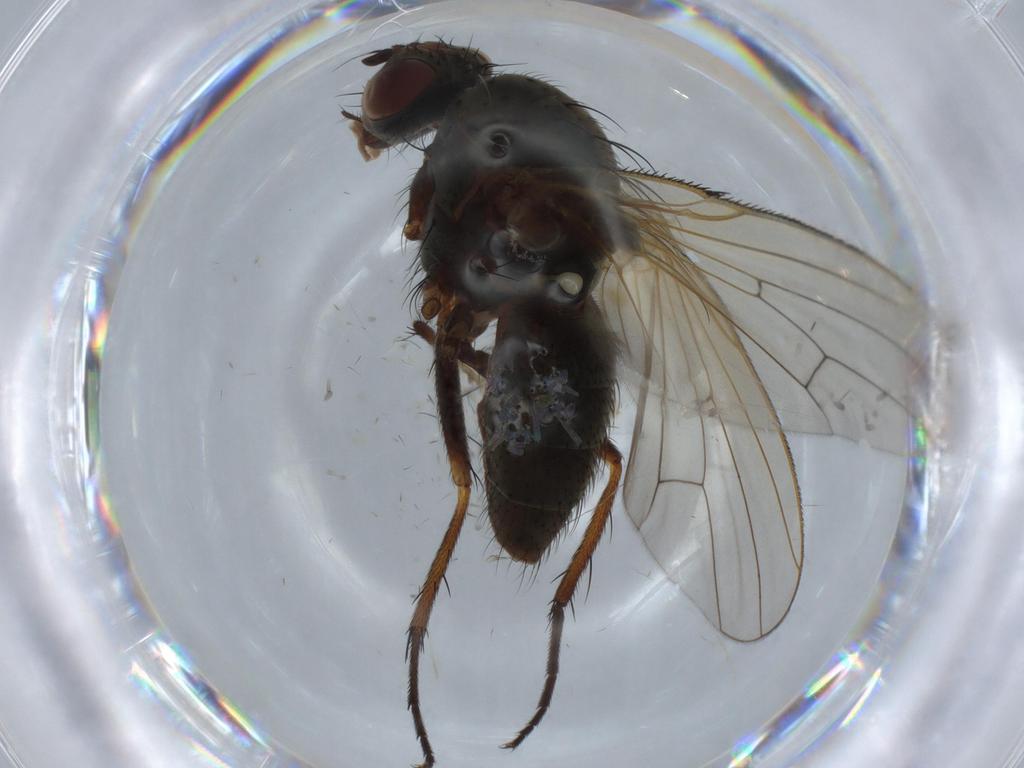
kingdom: Animalia
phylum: Arthropoda
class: Insecta
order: Diptera
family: Anthomyiidae
